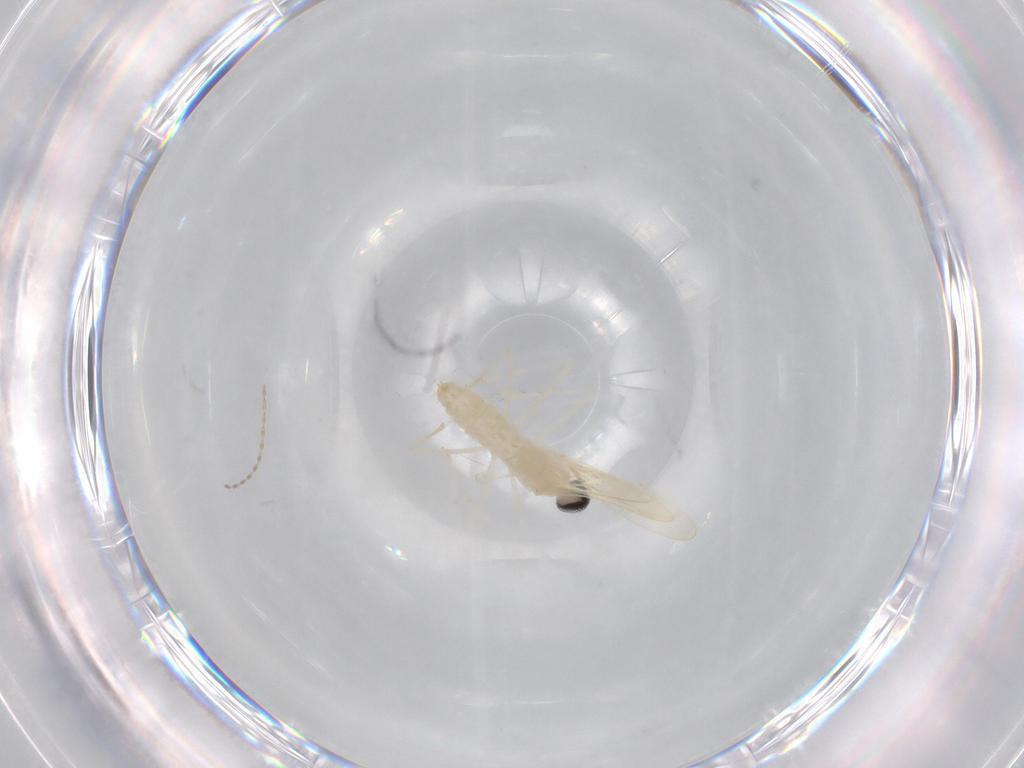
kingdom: Animalia
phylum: Arthropoda
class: Insecta
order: Diptera
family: Cecidomyiidae
